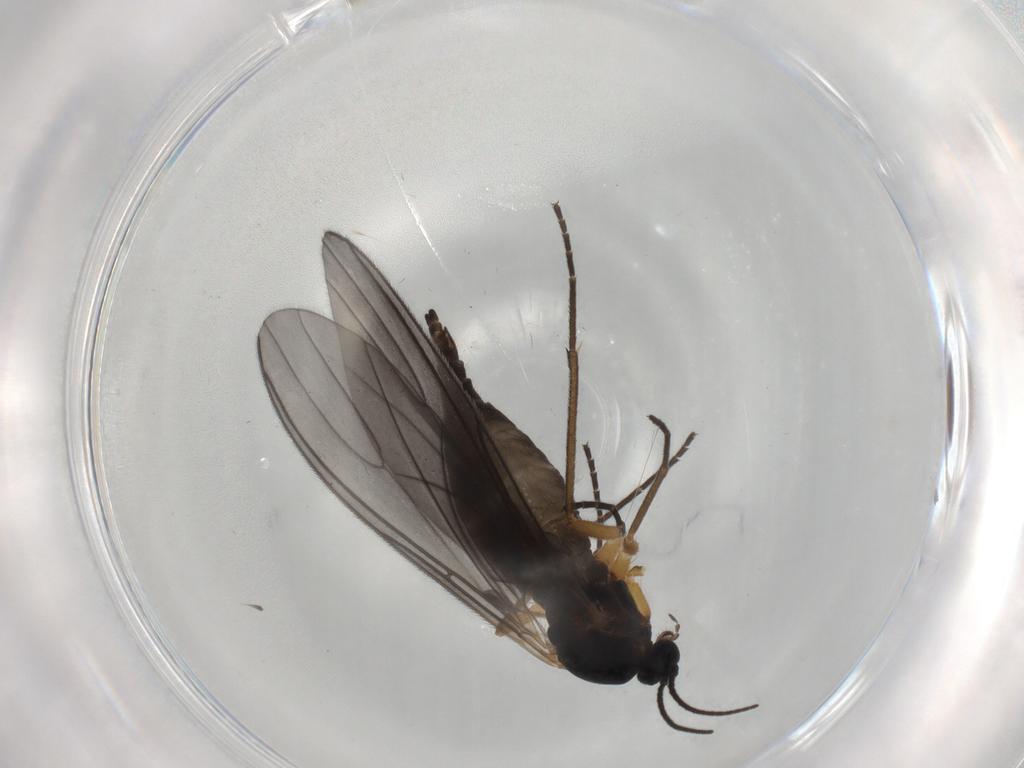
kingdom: Animalia
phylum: Arthropoda
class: Insecta
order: Diptera
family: Sciaridae
